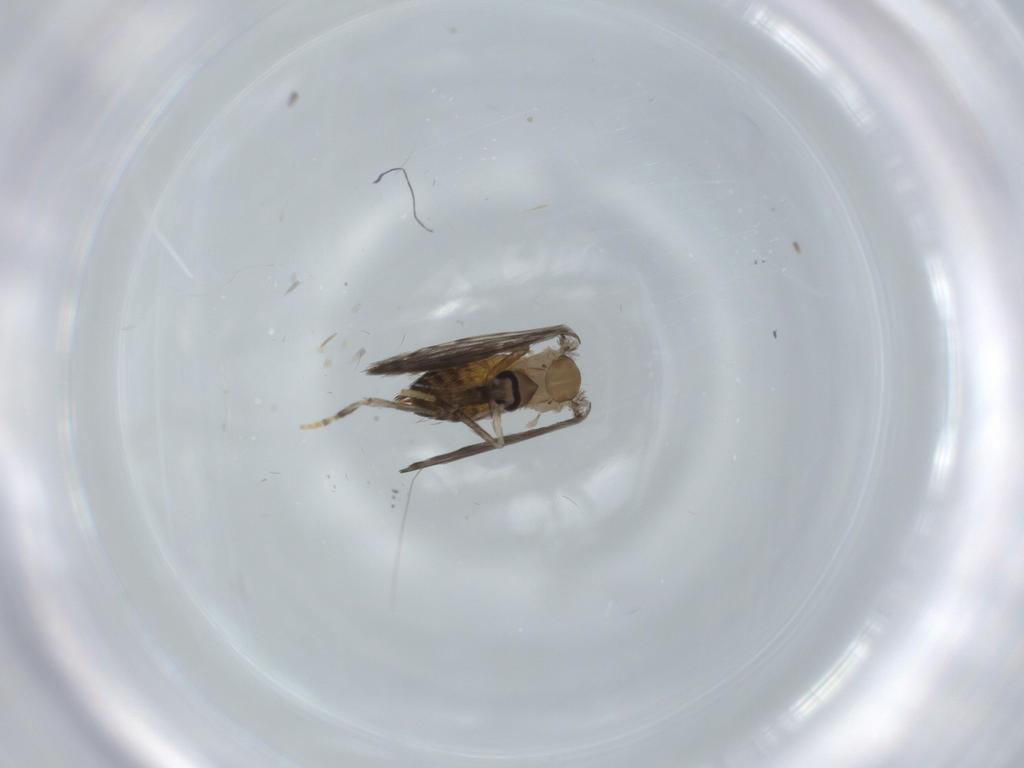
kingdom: Animalia
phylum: Arthropoda
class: Insecta
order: Diptera
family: Psychodidae
